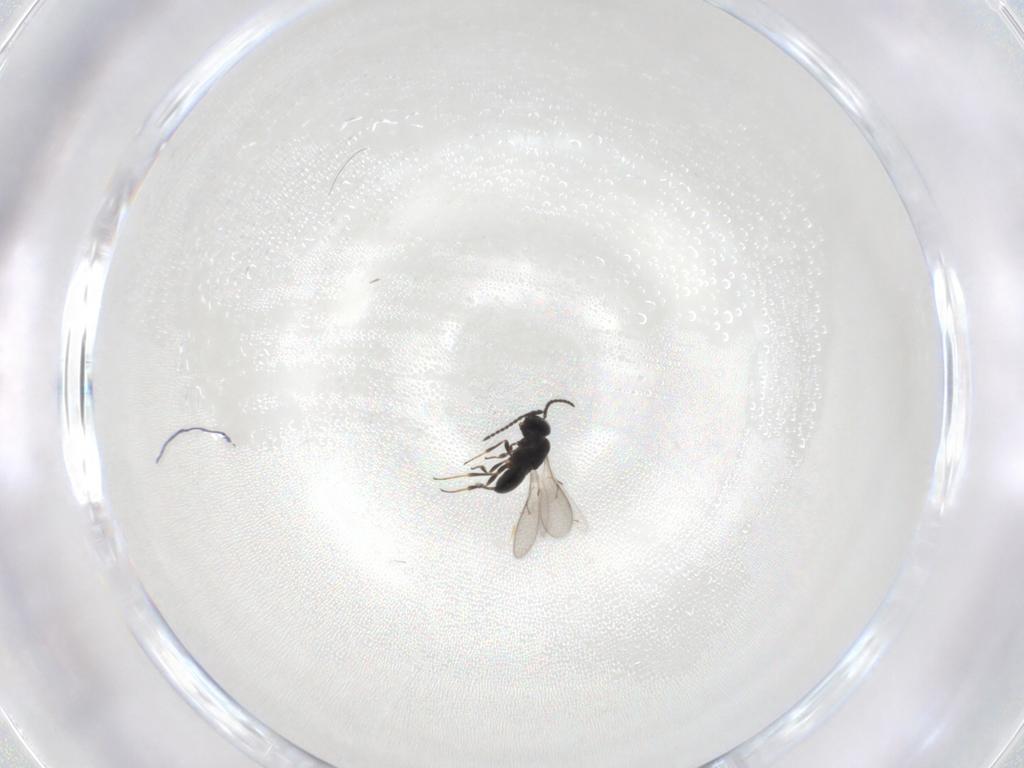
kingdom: Animalia
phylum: Arthropoda
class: Insecta
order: Hymenoptera
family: Scelionidae
